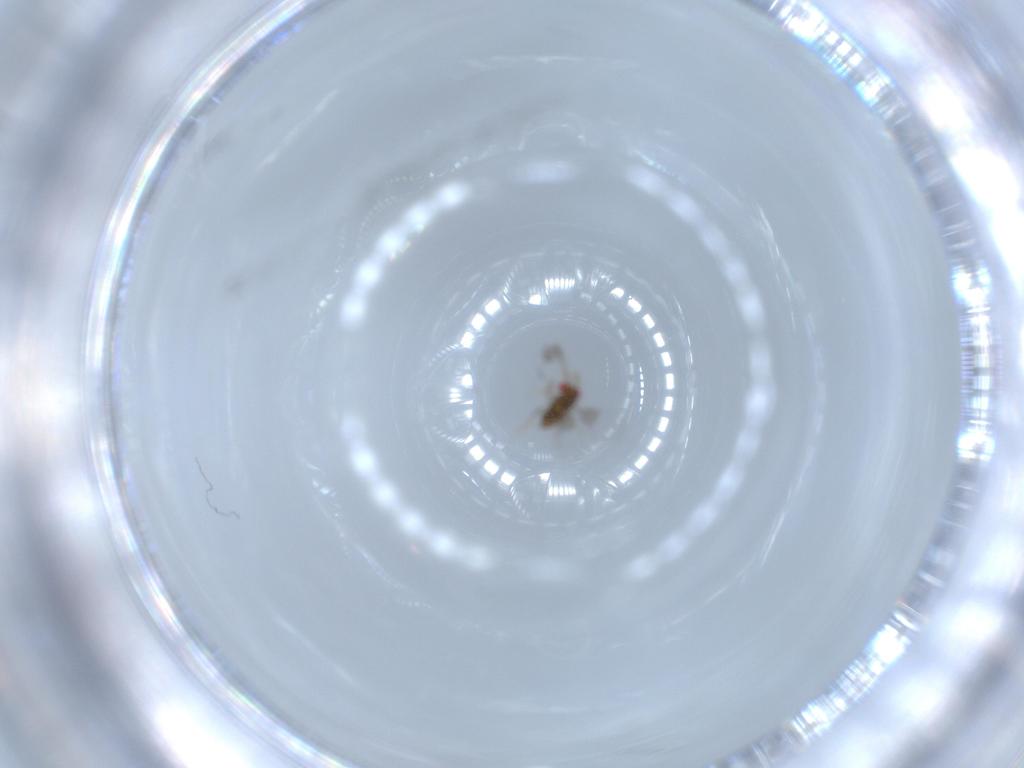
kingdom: Animalia
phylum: Arthropoda
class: Insecta
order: Hymenoptera
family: Trichogrammatidae
